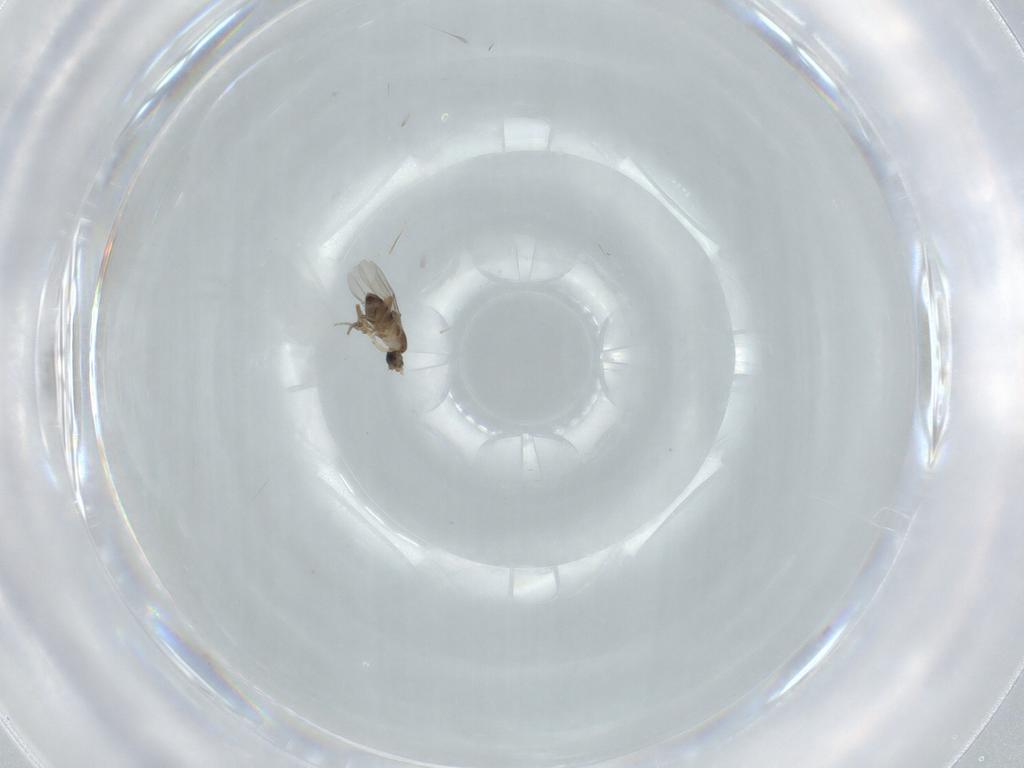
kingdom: Animalia
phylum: Arthropoda
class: Insecta
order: Diptera
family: Phoridae
